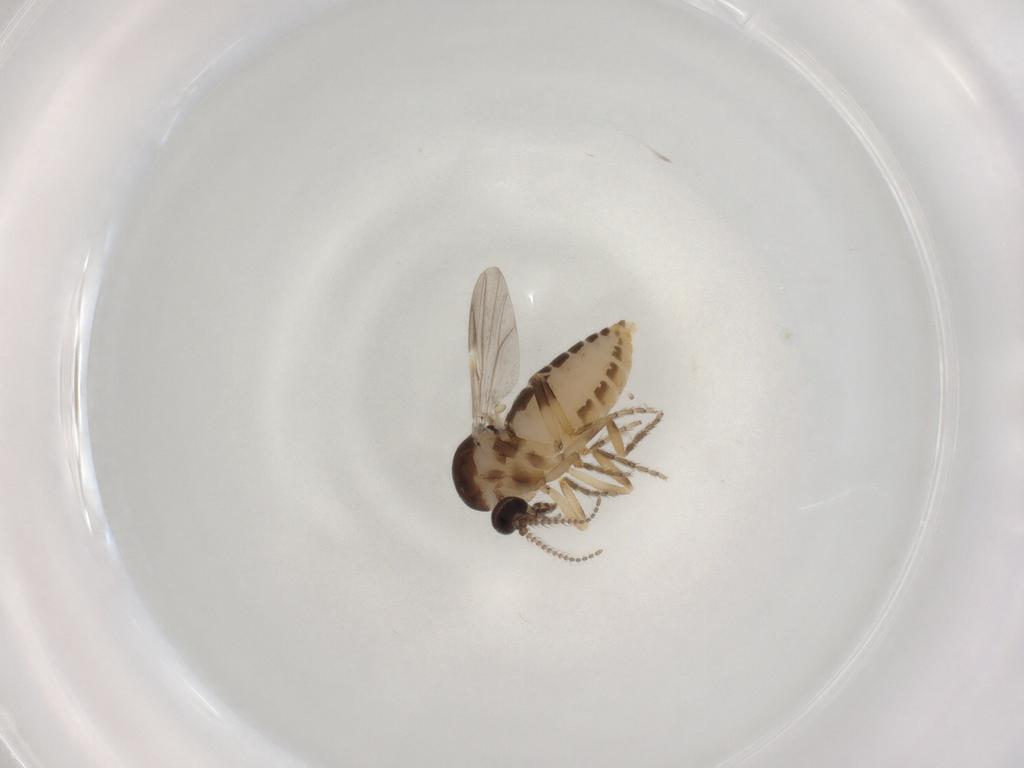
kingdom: Animalia
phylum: Arthropoda
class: Insecta
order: Diptera
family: Ceratopogonidae
